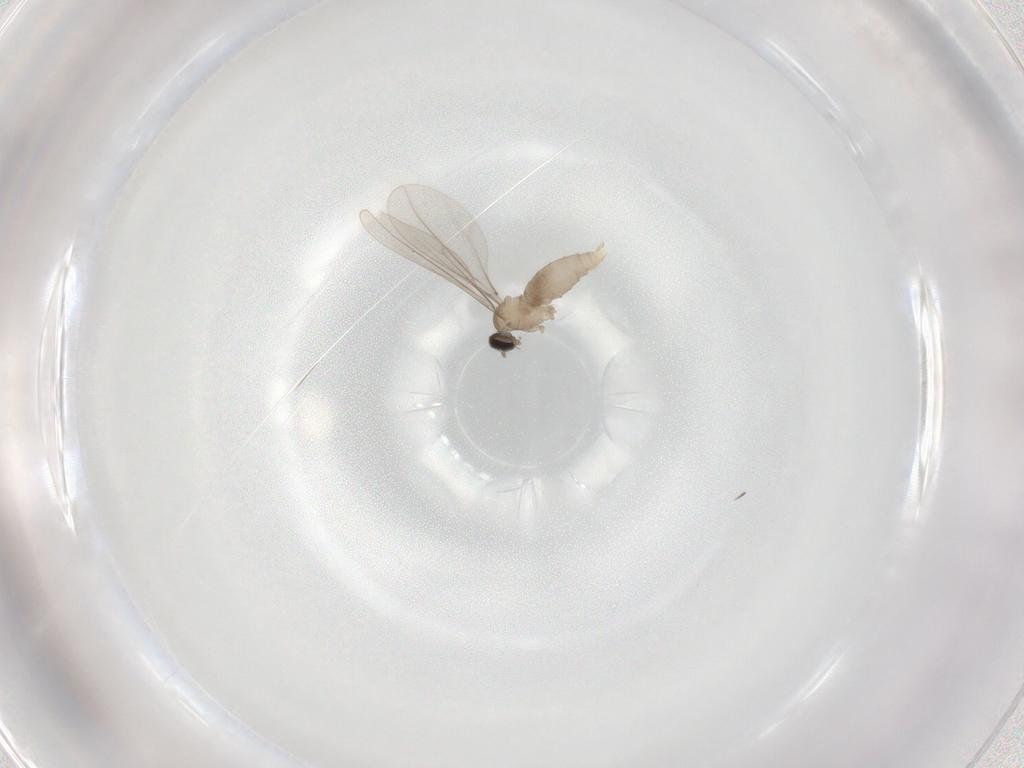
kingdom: Animalia
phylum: Arthropoda
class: Insecta
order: Diptera
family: Cecidomyiidae
